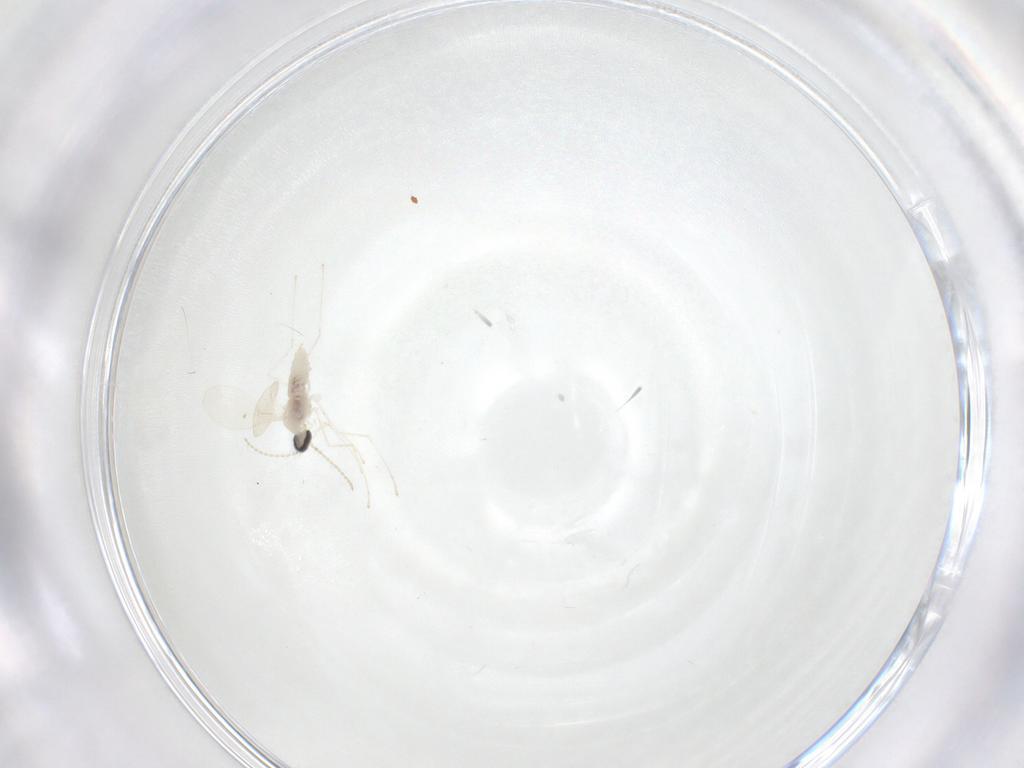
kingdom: Animalia
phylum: Arthropoda
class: Insecta
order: Diptera
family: Cecidomyiidae
